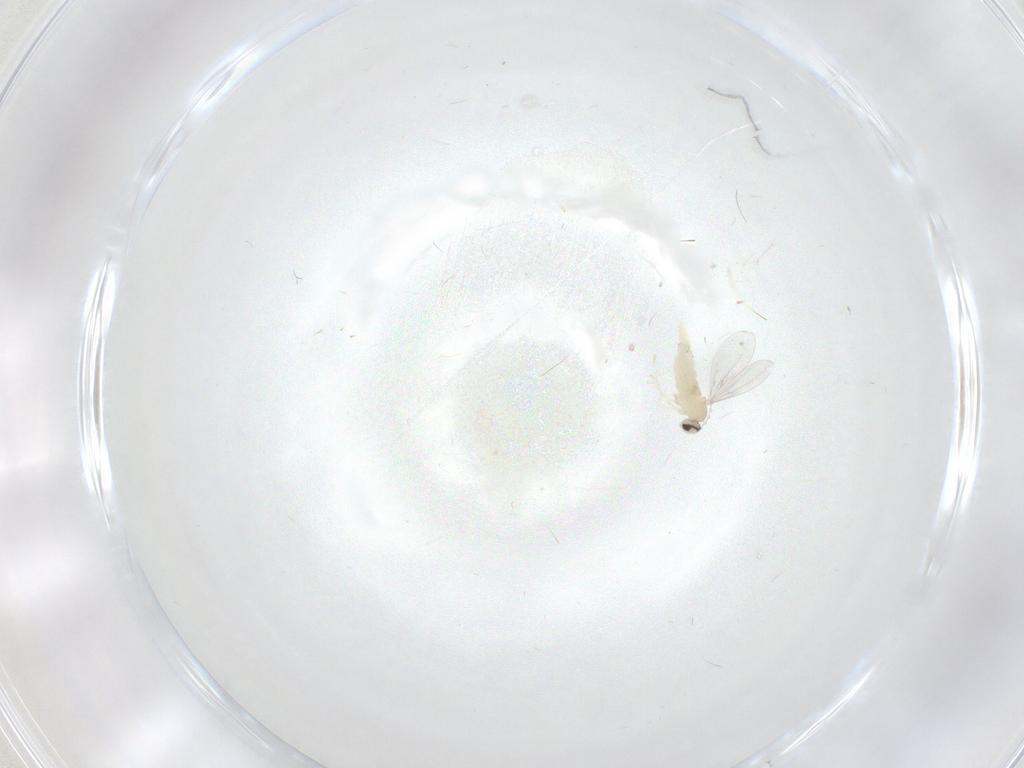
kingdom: Animalia
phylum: Arthropoda
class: Insecta
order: Diptera
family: Cecidomyiidae
